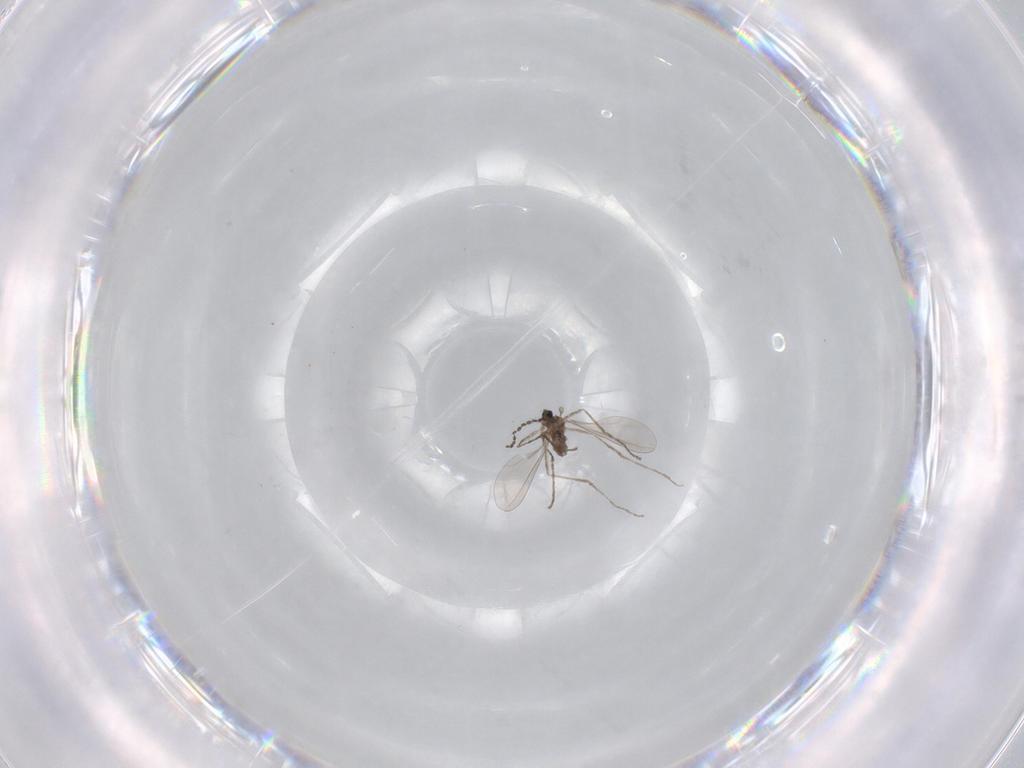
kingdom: Animalia
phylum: Arthropoda
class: Insecta
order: Diptera
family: Cecidomyiidae
